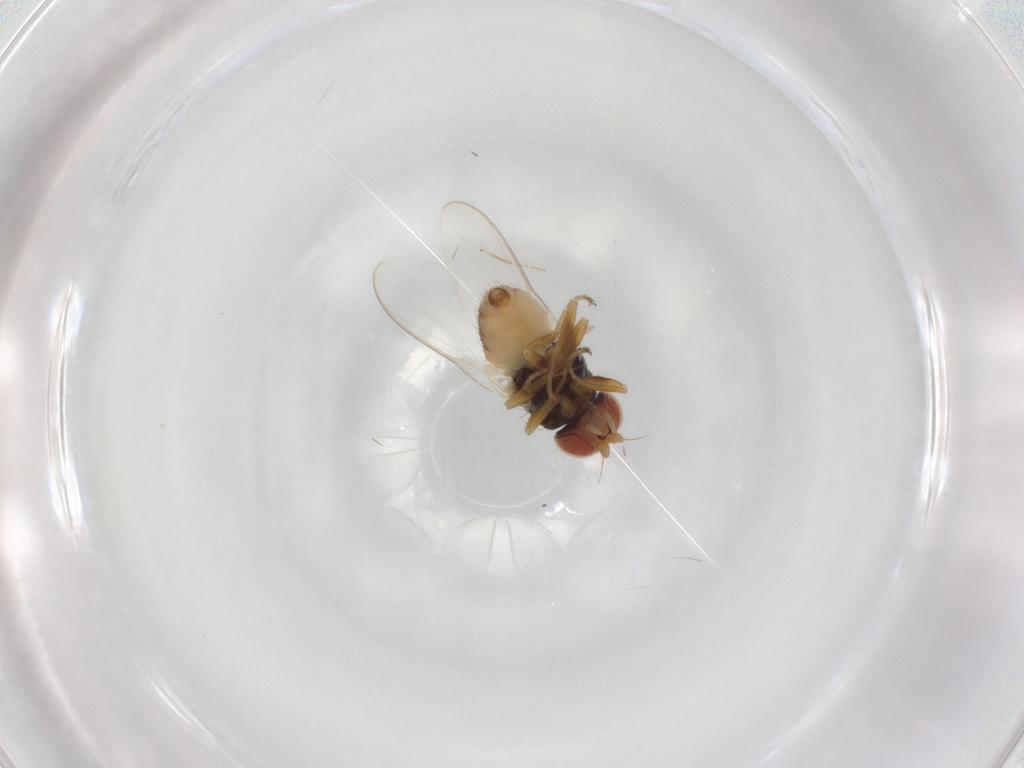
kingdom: Animalia
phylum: Arthropoda
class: Insecta
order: Diptera
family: Chloropidae
